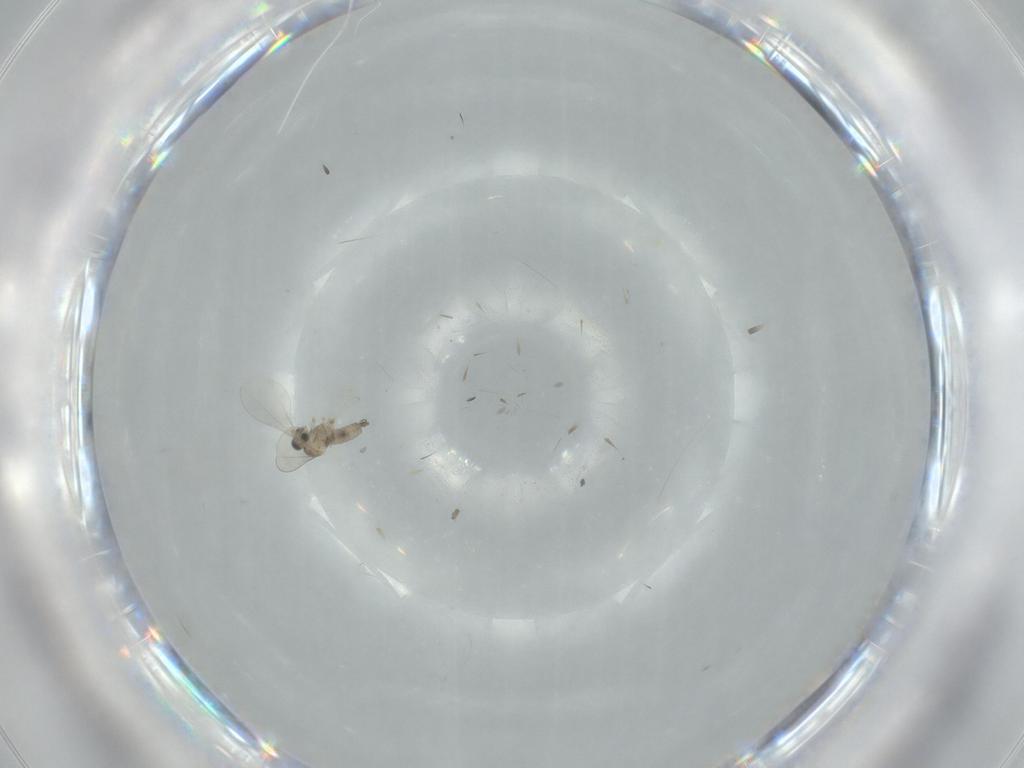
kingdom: Animalia
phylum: Arthropoda
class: Insecta
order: Diptera
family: Cecidomyiidae
